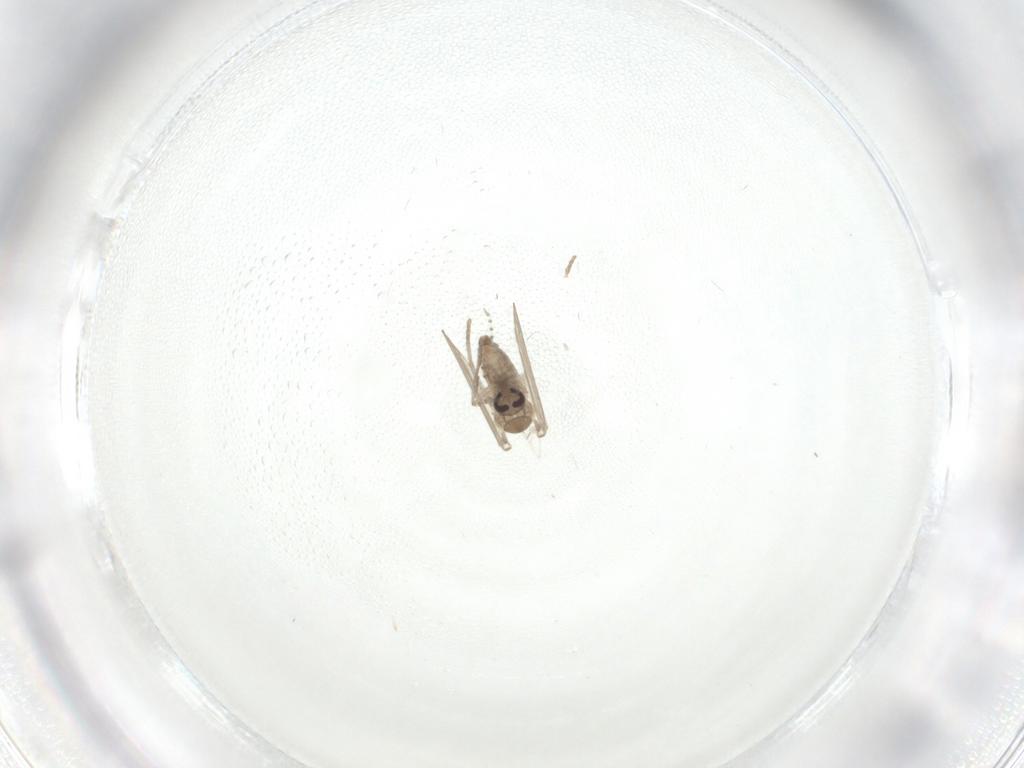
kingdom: Animalia
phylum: Arthropoda
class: Insecta
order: Diptera
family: Psychodidae
